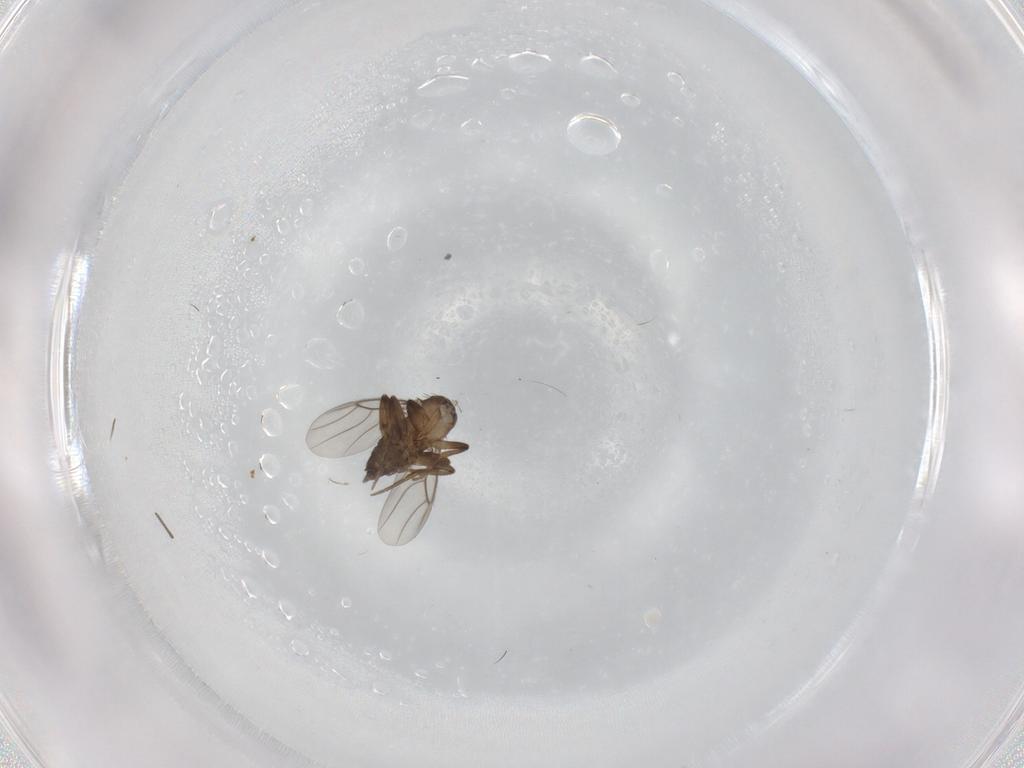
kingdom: Animalia
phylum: Arthropoda
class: Insecta
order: Diptera
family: Phoridae
